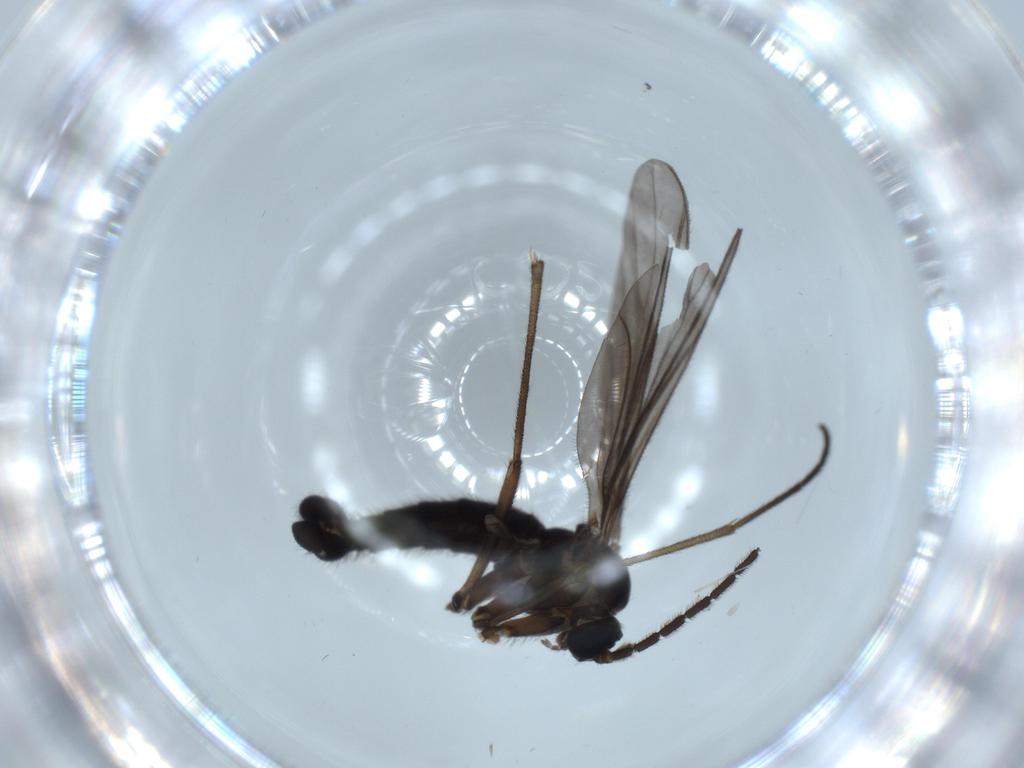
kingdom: Animalia
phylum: Arthropoda
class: Insecta
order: Diptera
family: Sciaridae
